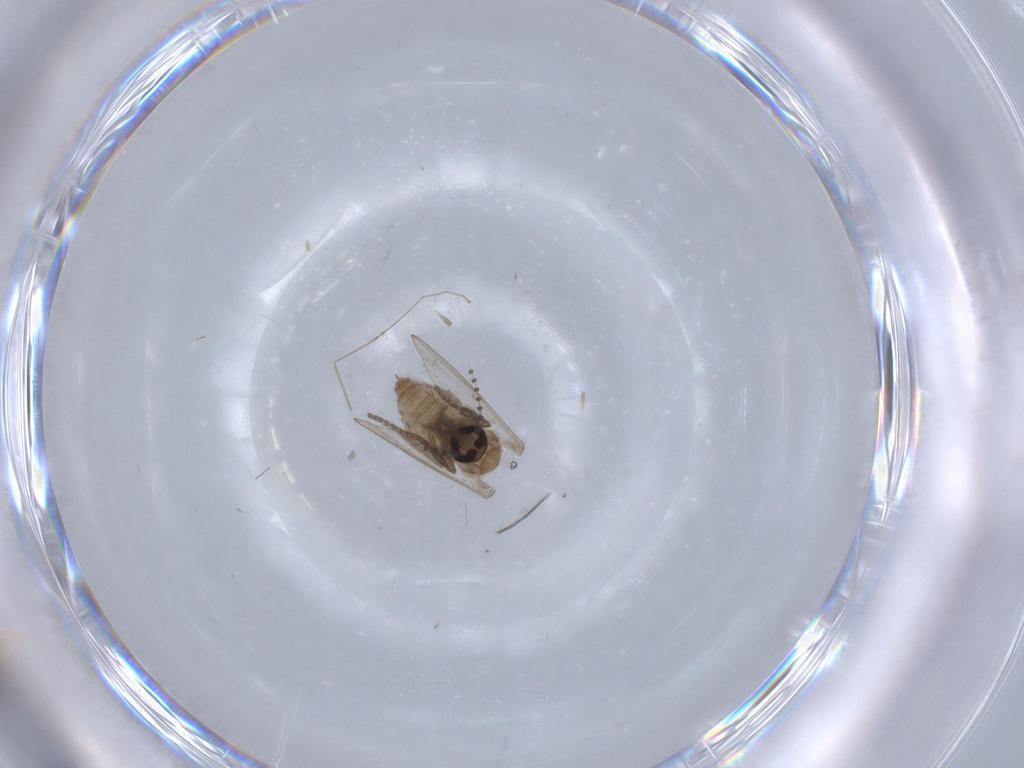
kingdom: Animalia
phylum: Arthropoda
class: Insecta
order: Diptera
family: Psychodidae
